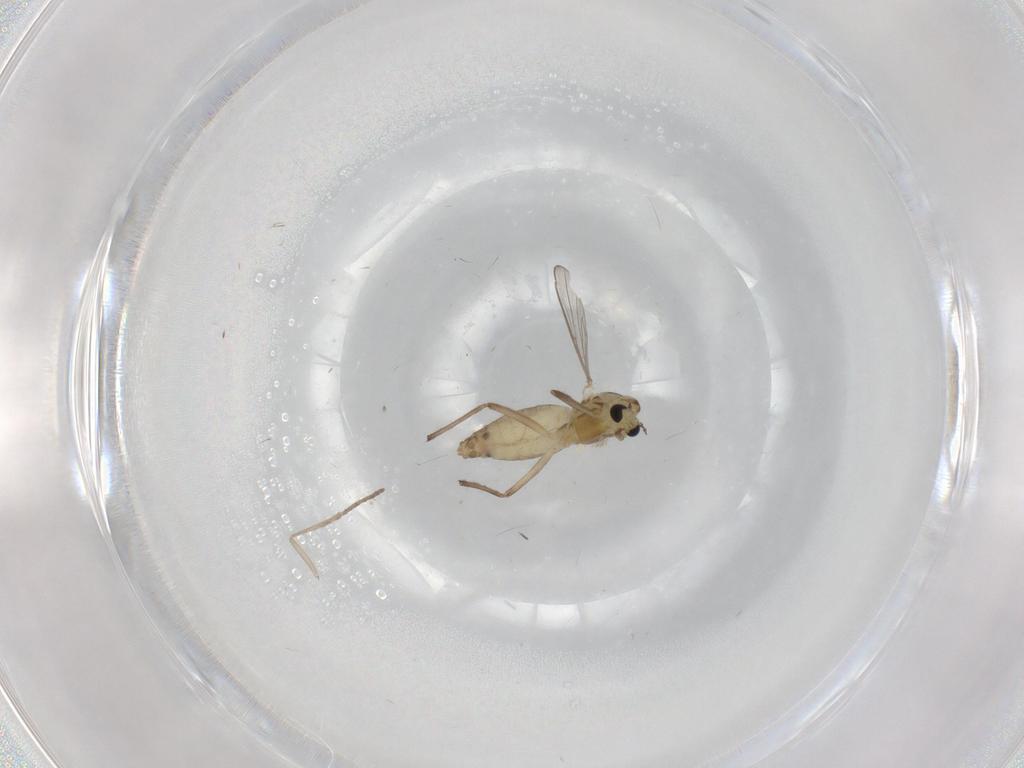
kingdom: Animalia
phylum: Arthropoda
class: Insecta
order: Diptera
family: Chironomidae
